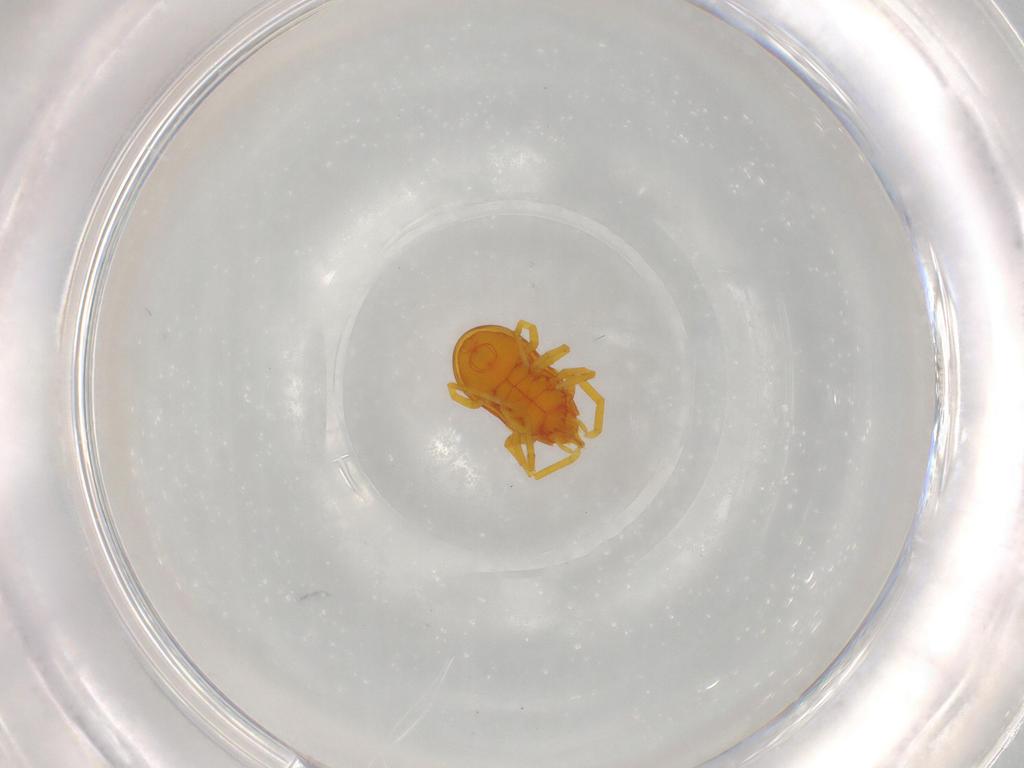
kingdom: Animalia
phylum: Arthropoda
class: Arachnida
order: Trombidiformes
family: Labidostommidae
